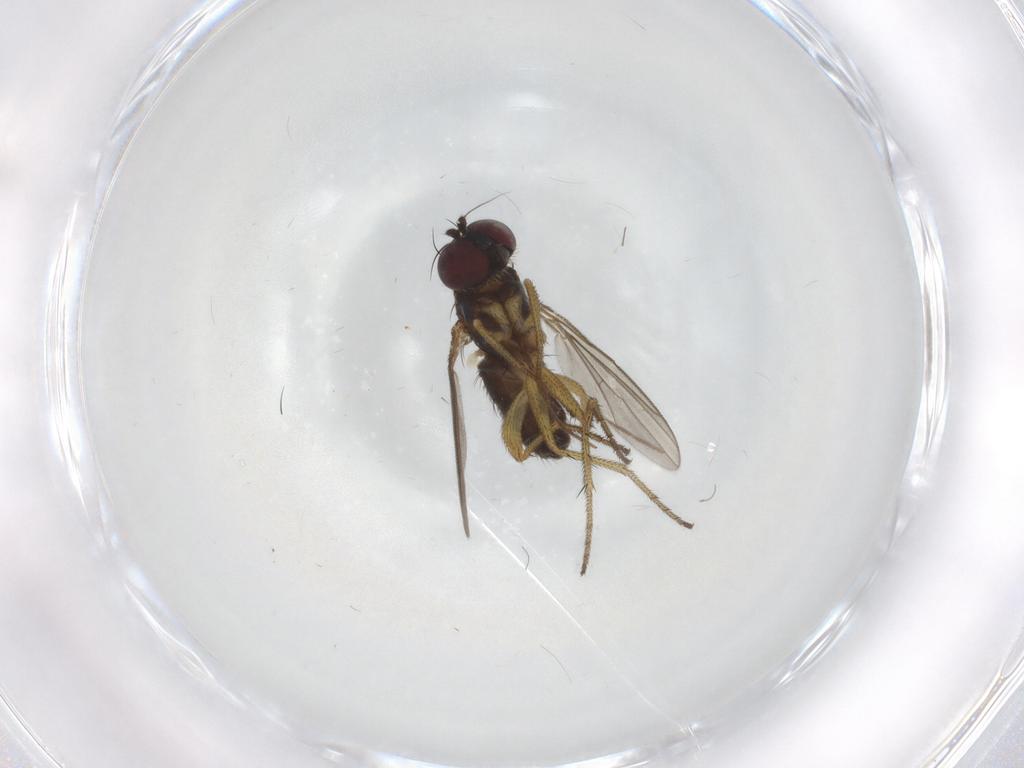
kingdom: Animalia
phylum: Arthropoda
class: Insecta
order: Diptera
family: Chironomidae
